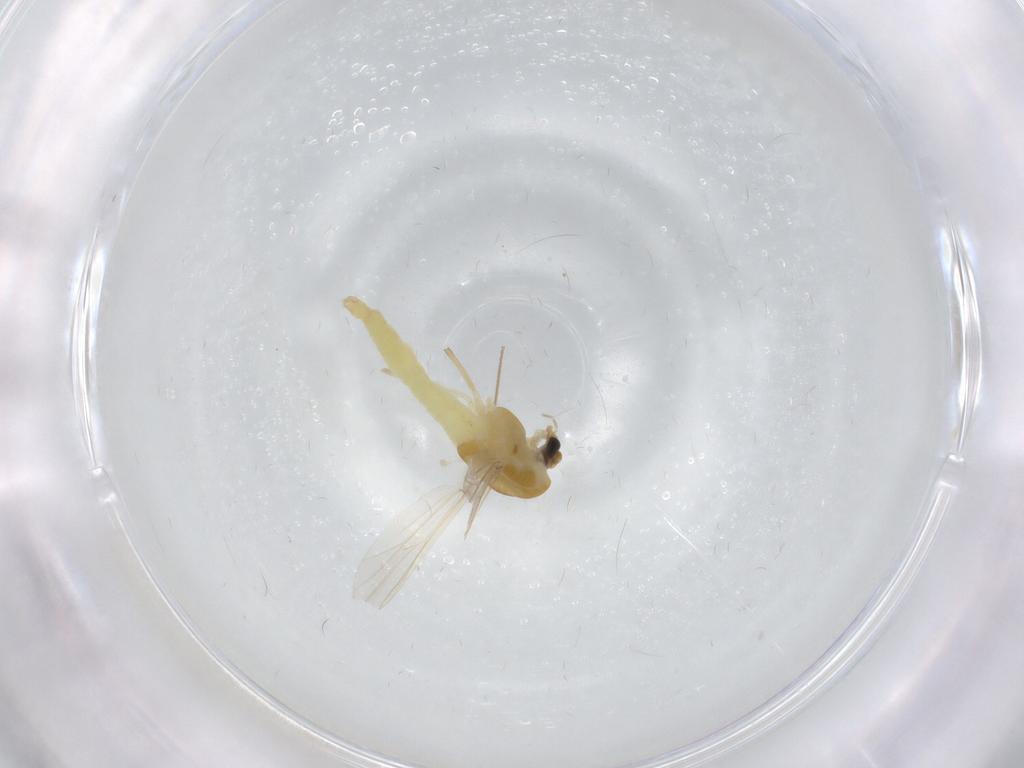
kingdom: Animalia
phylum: Arthropoda
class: Insecta
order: Diptera
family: Chironomidae
